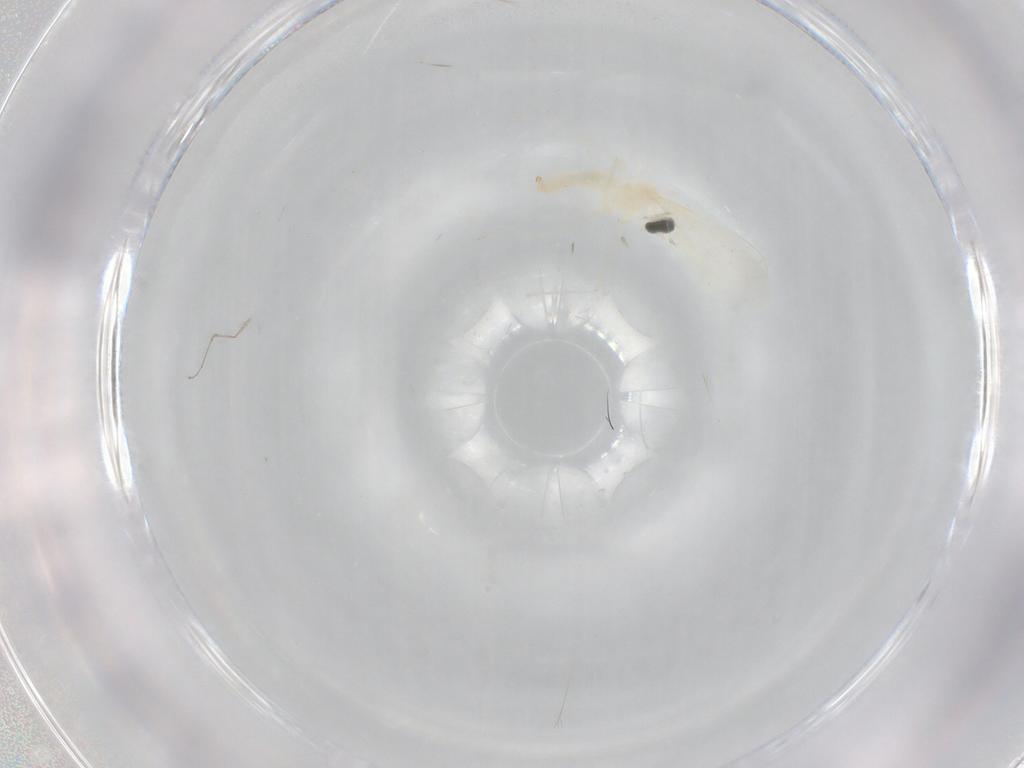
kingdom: Animalia
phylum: Arthropoda
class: Insecta
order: Diptera
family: Cecidomyiidae
